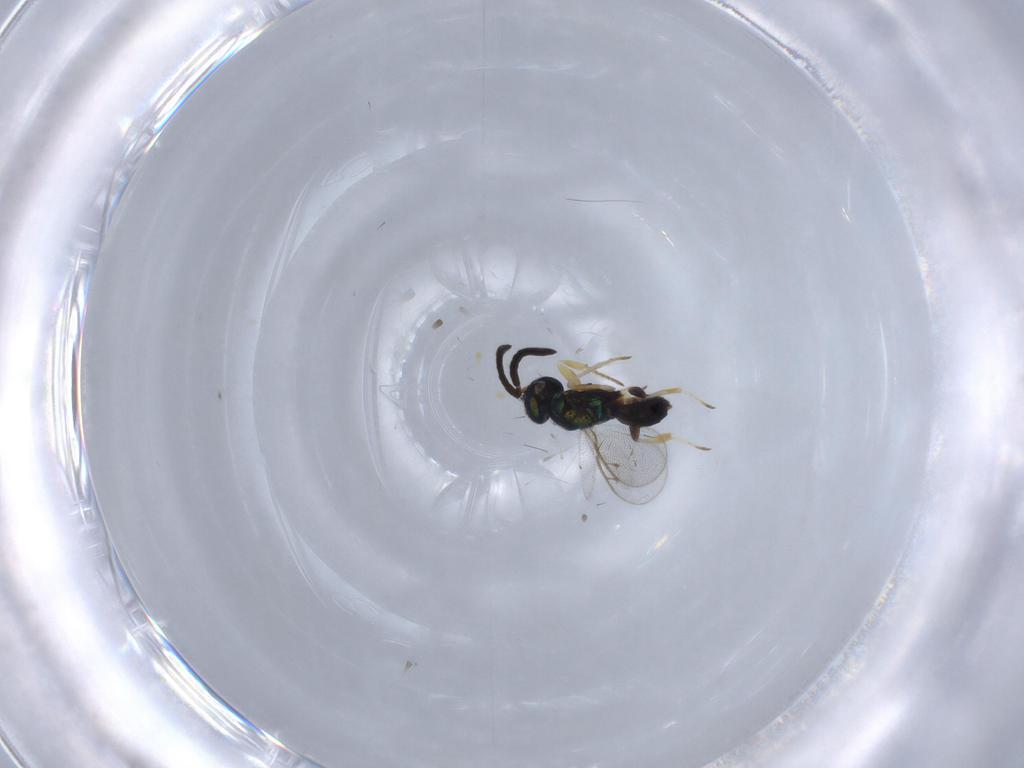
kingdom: Animalia
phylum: Arthropoda
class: Insecta
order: Hymenoptera
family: Eupelmidae
